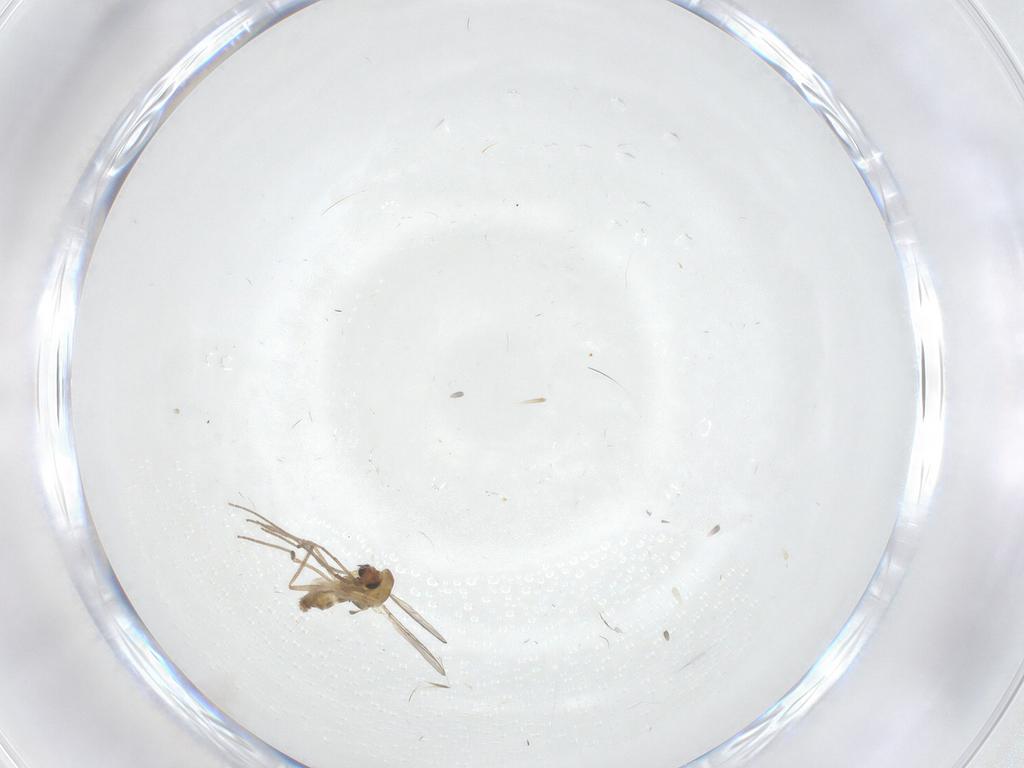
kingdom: Animalia
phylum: Arthropoda
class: Insecta
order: Diptera
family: Chironomidae
